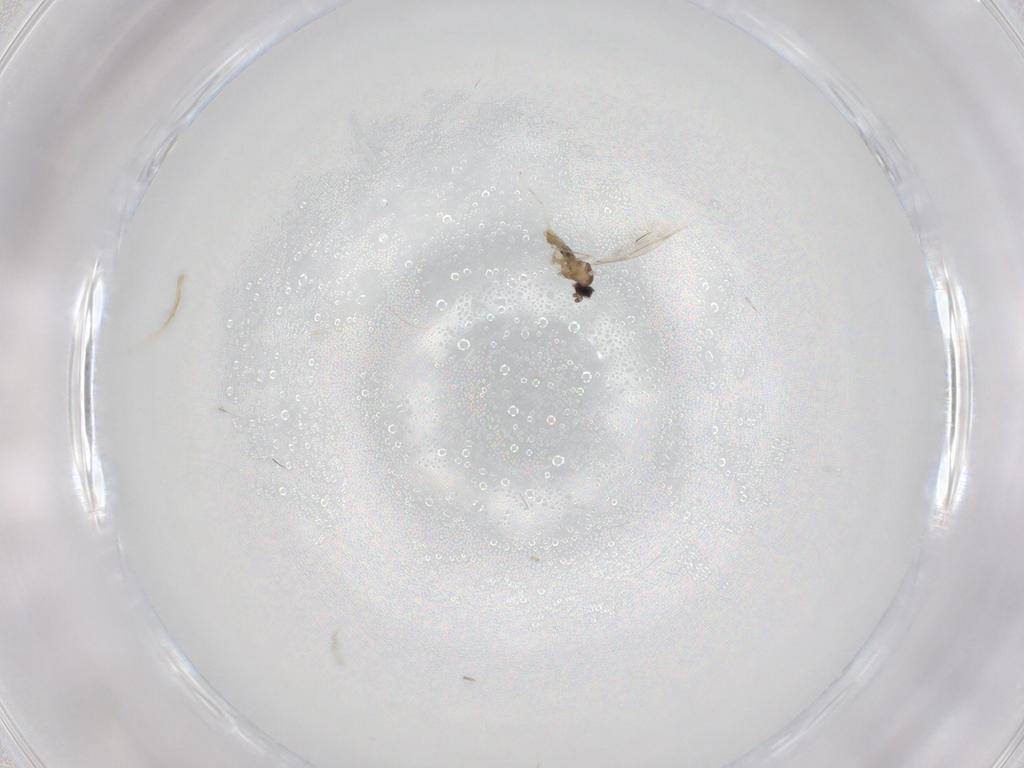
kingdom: Animalia
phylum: Arthropoda
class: Insecta
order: Diptera
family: Cecidomyiidae
